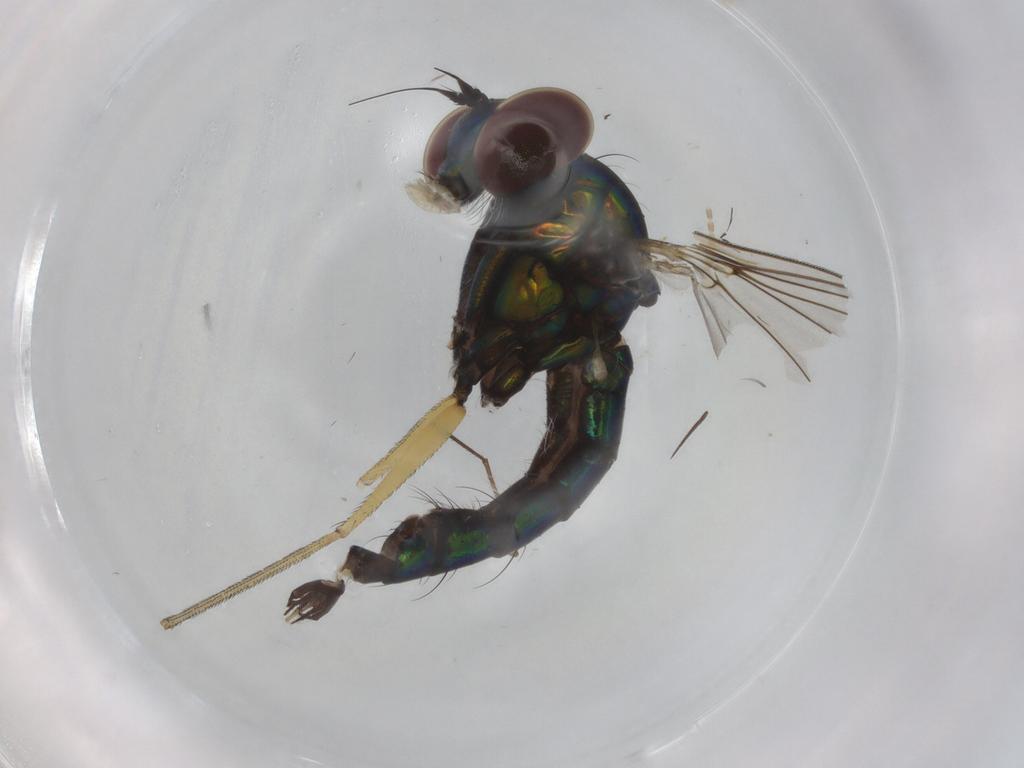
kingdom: Animalia
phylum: Arthropoda
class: Insecta
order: Diptera
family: Dolichopodidae
